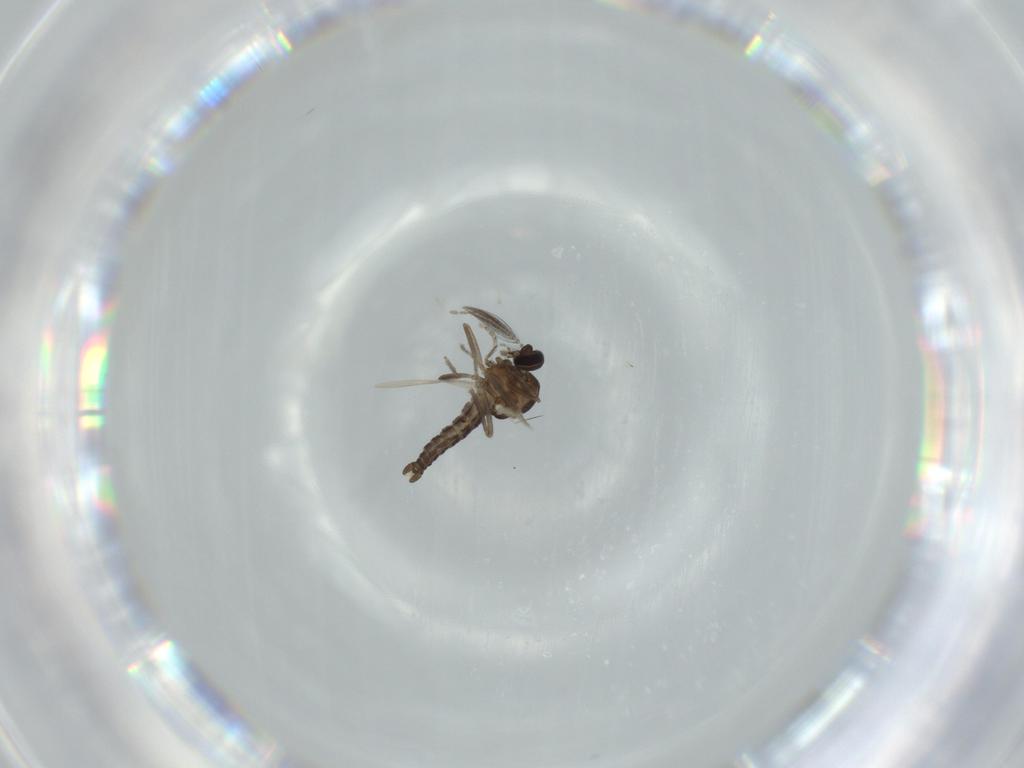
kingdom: Animalia
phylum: Arthropoda
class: Insecta
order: Diptera
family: Ceratopogonidae
